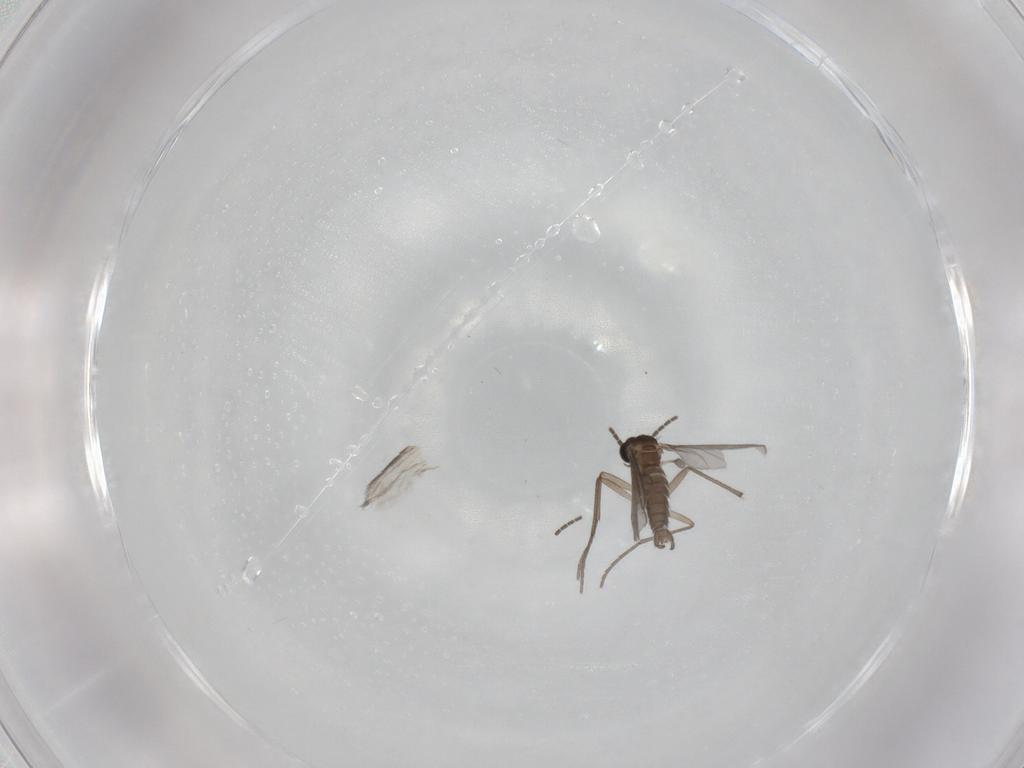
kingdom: Animalia
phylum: Arthropoda
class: Insecta
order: Diptera
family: Sciaridae
